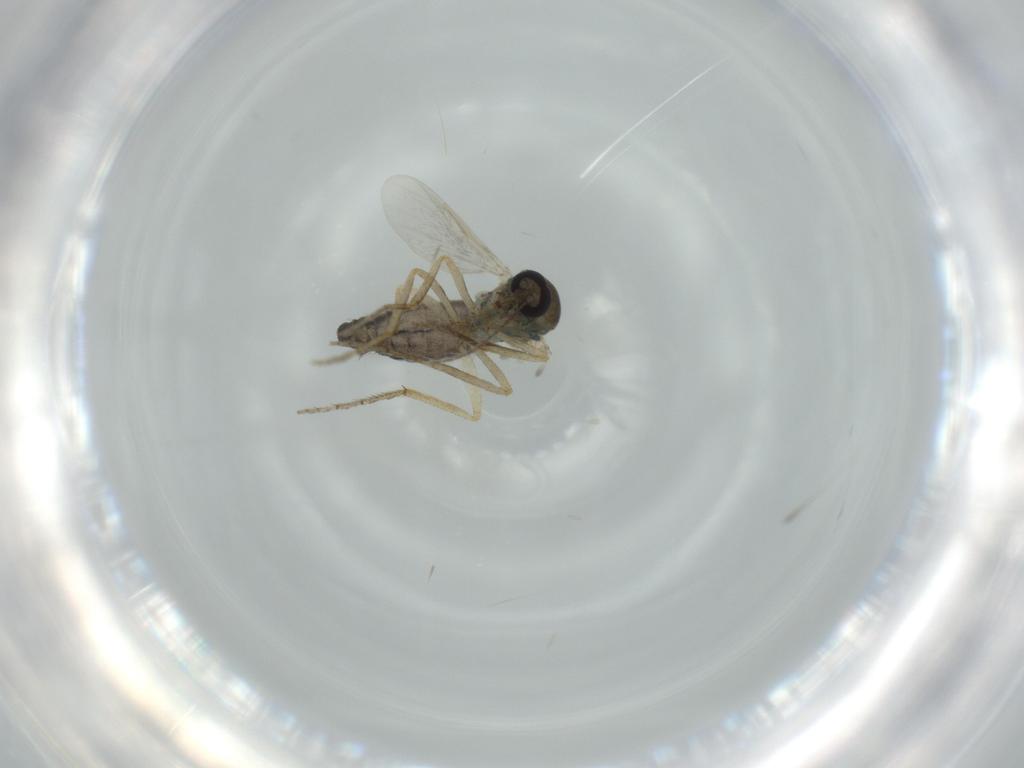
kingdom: Animalia
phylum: Arthropoda
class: Insecta
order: Diptera
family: Ceratopogonidae
